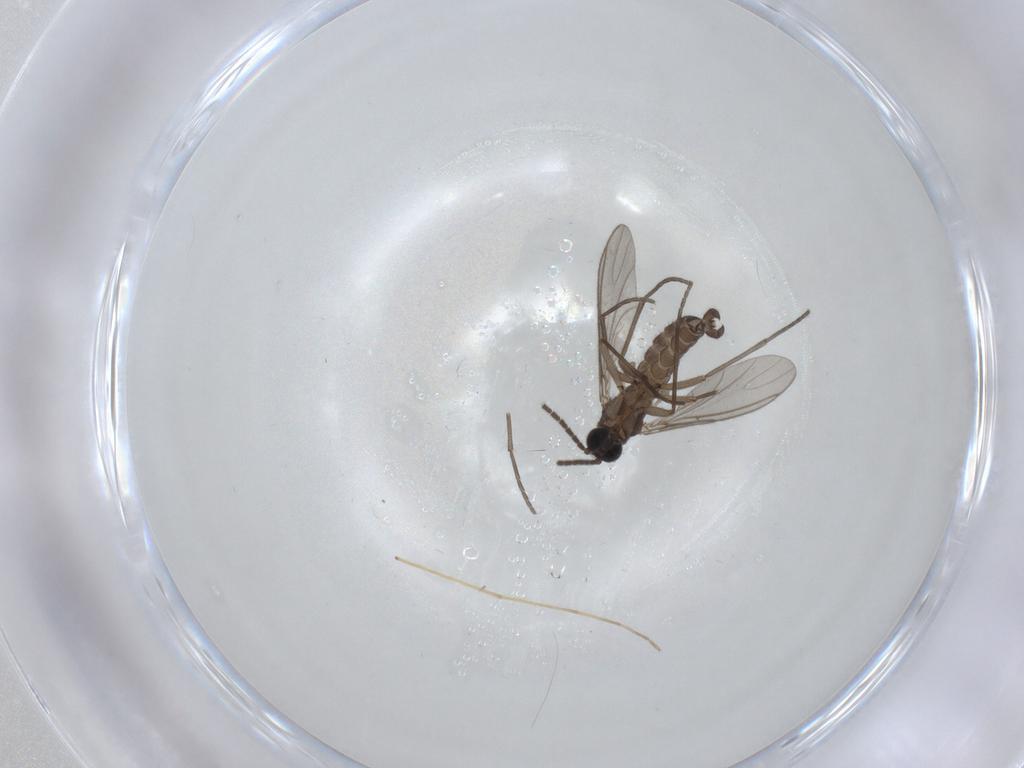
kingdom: Animalia
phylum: Arthropoda
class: Insecta
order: Diptera
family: Sciaridae
